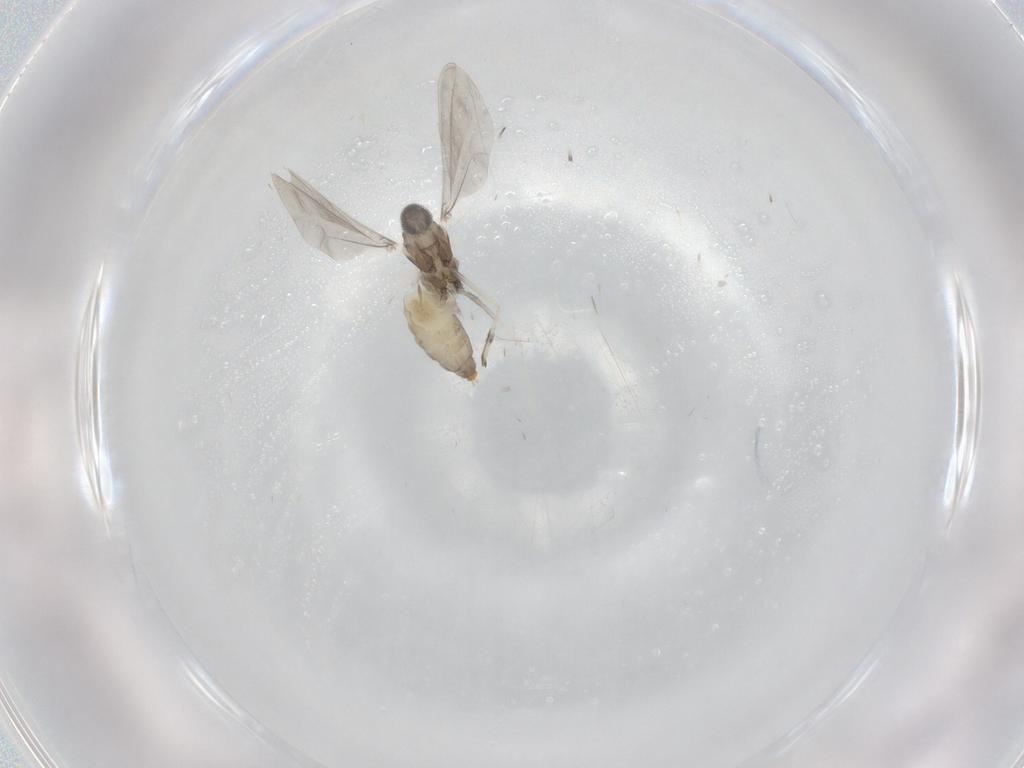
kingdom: Animalia
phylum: Arthropoda
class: Insecta
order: Diptera
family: Cecidomyiidae
